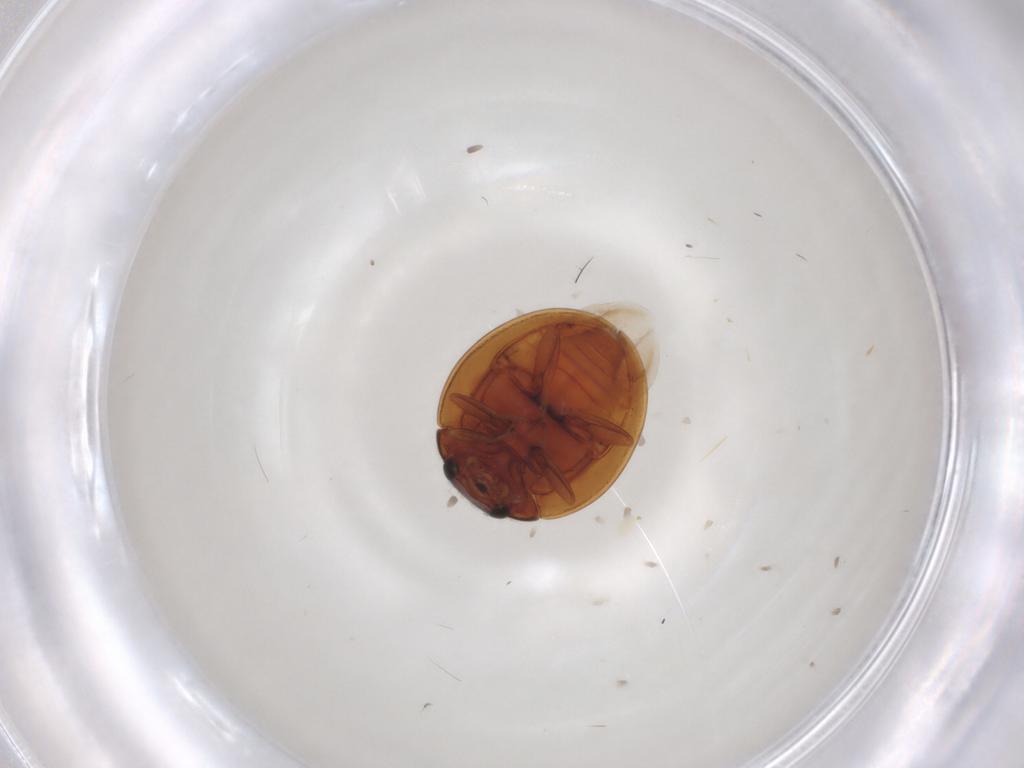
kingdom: Animalia
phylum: Arthropoda
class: Insecta
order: Coleoptera
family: Coccinellidae
